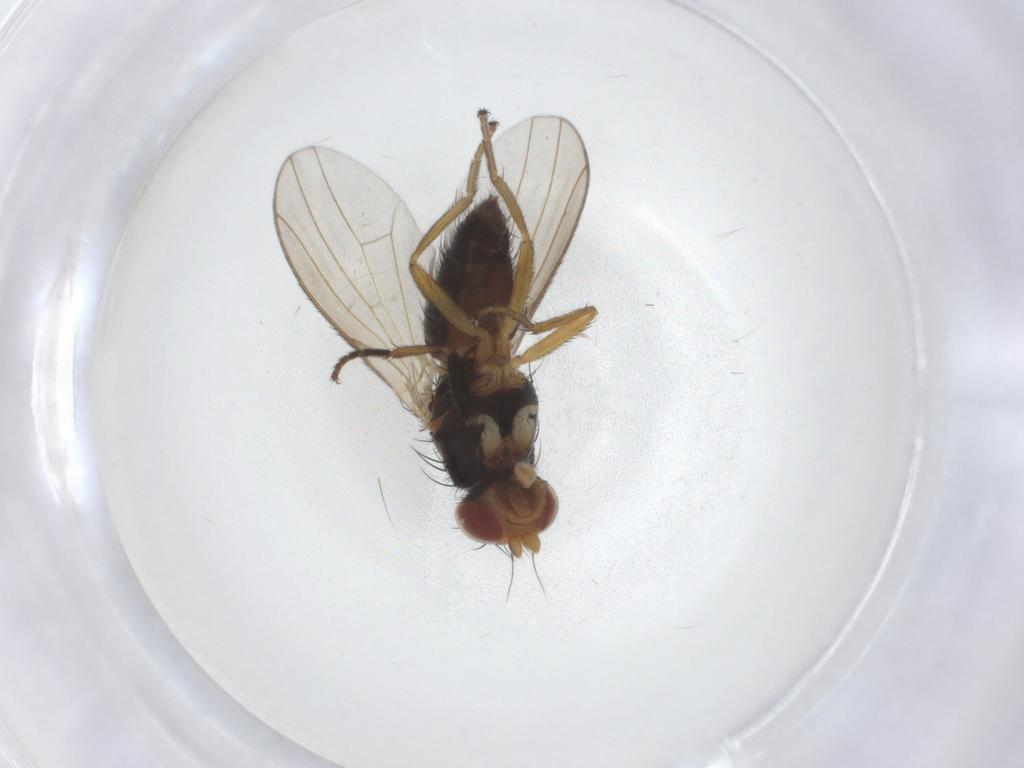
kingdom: Animalia
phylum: Arthropoda
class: Insecta
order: Diptera
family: Heleomyzidae
